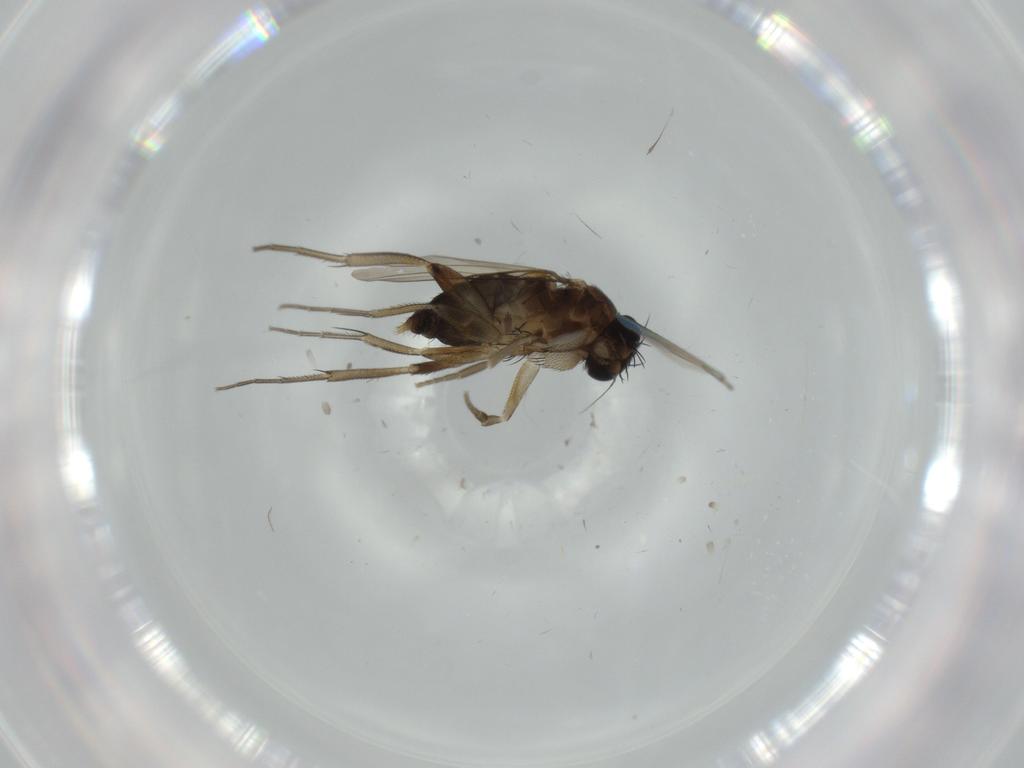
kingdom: Animalia
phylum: Arthropoda
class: Insecta
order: Diptera
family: Phoridae
